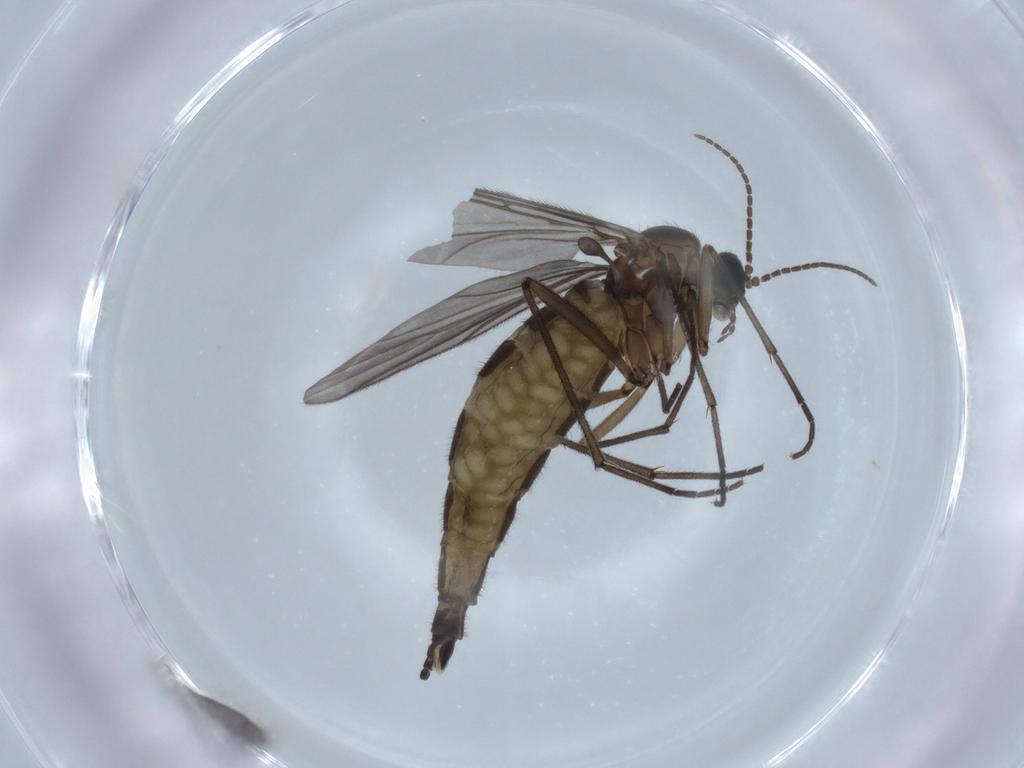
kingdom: Animalia
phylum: Arthropoda
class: Insecta
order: Diptera
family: Sciaridae
